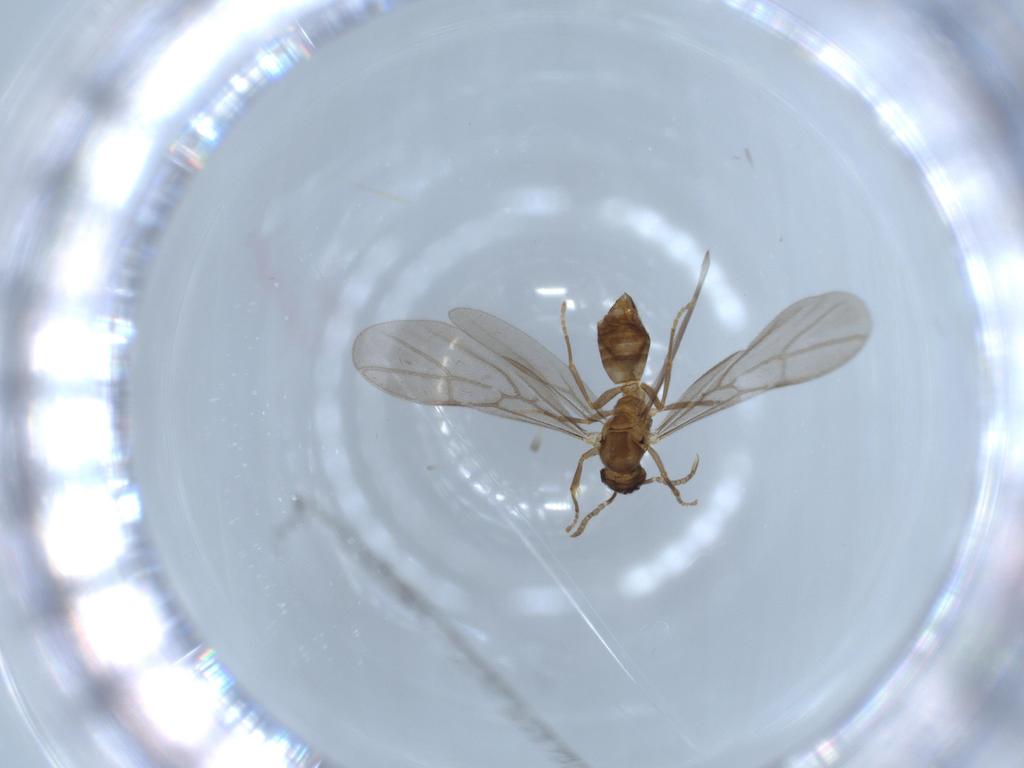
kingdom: Animalia
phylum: Arthropoda
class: Insecta
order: Hymenoptera
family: Formicidae
